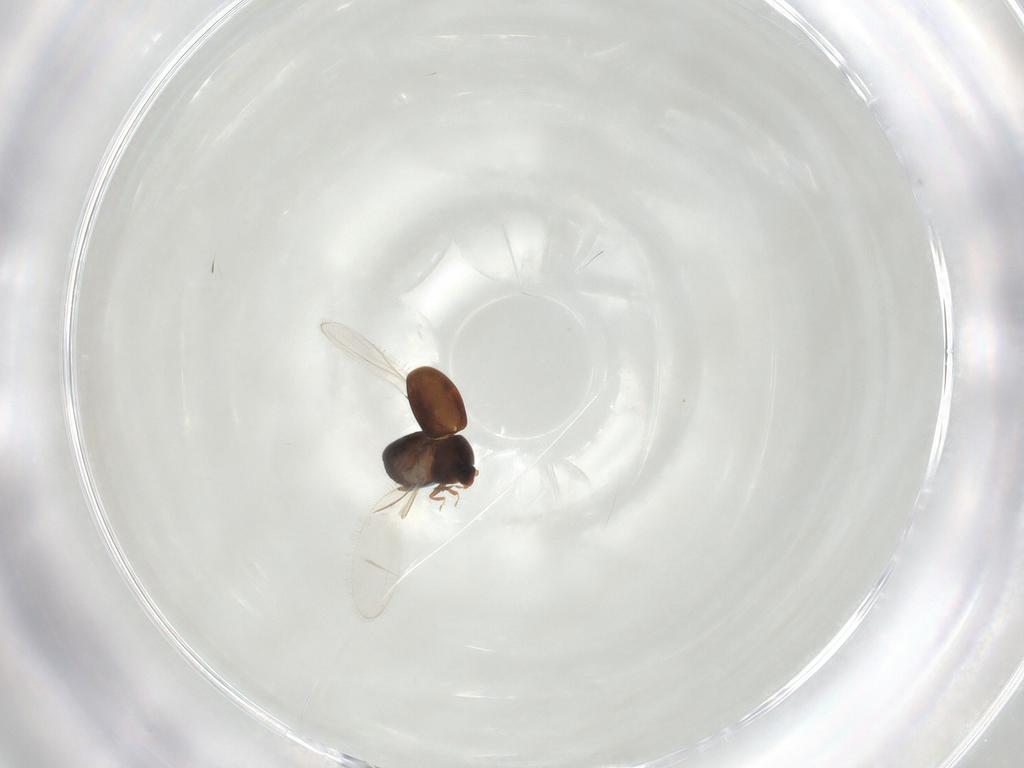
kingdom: Animalia
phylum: Arthropoda
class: Insecta
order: Coleoptera
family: Corylophidae
